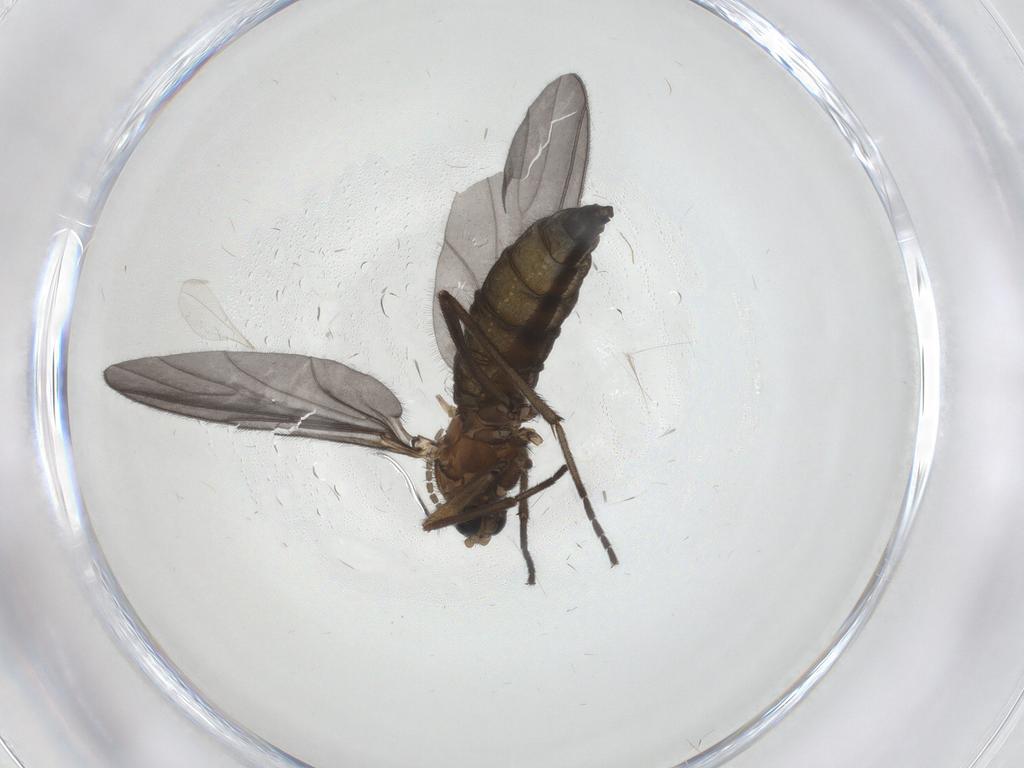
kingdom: Animalia
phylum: Arthropoda
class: Insecta
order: Diptera
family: Chironomidae
